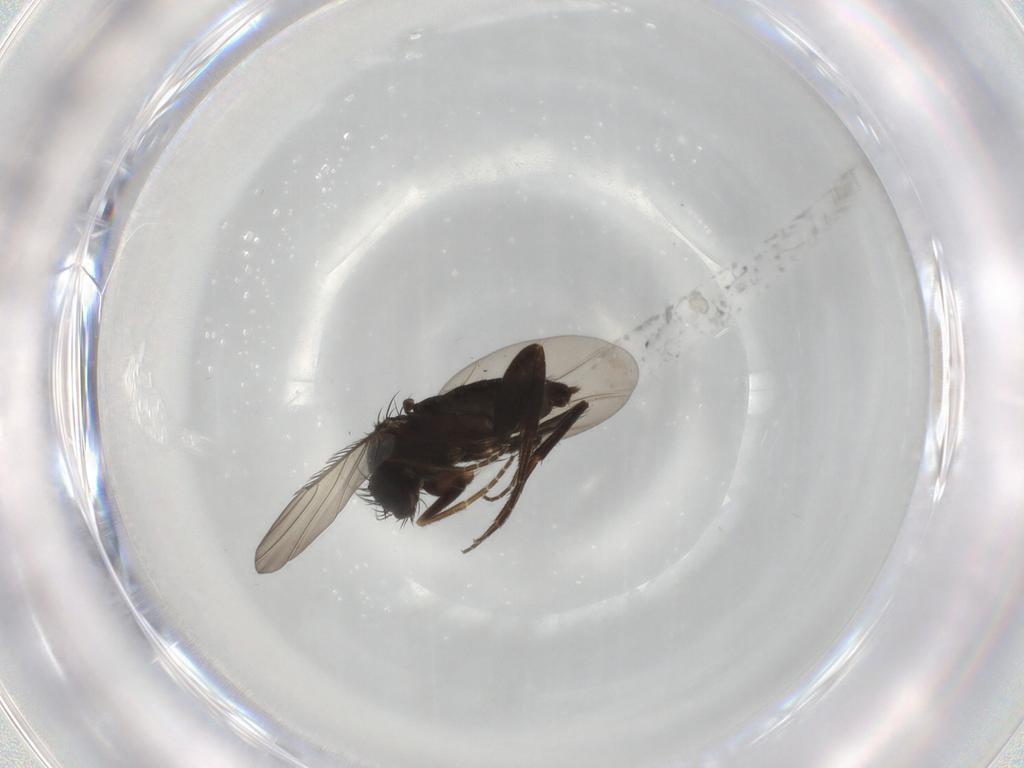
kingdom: Animalia
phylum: Arthropoda
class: Insecta
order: Diptera
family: Phoridae
